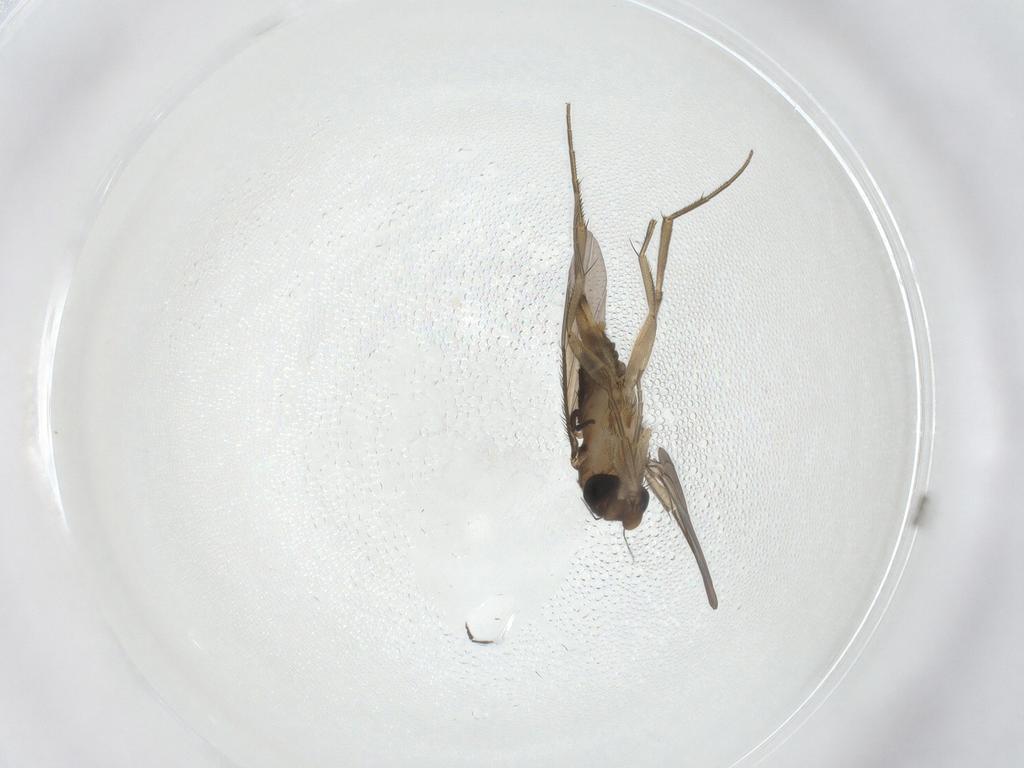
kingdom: Animalia
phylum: Arthropoda
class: Insecta
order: Diptera
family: Phoridae
